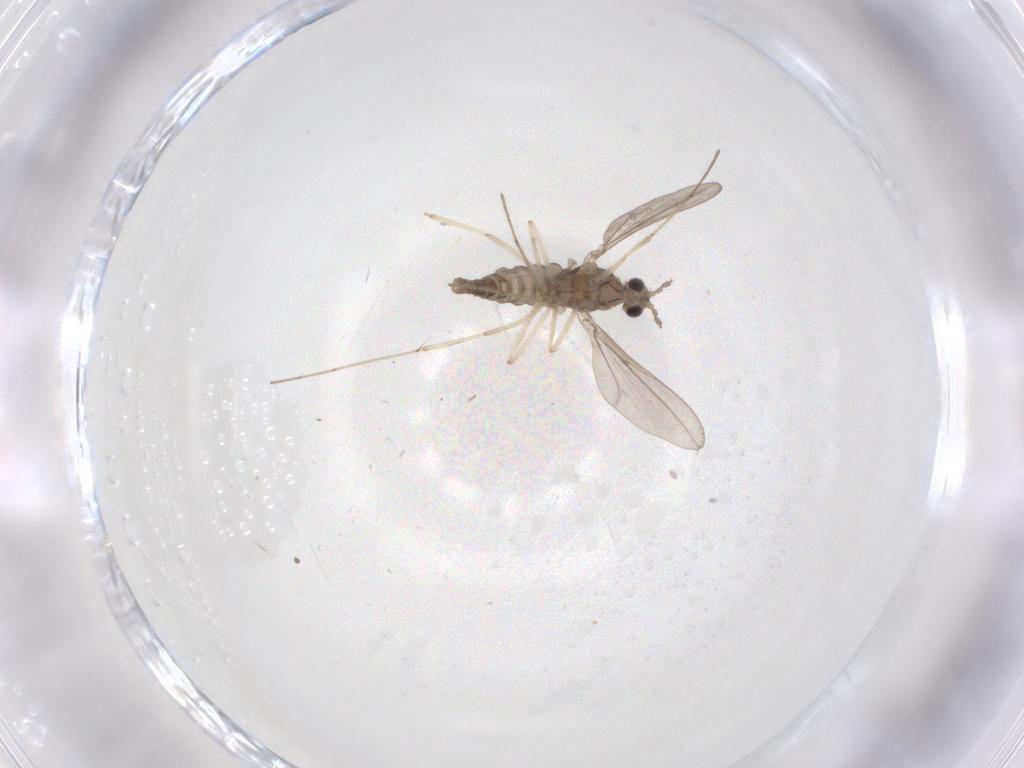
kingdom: Animalia
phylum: Arthropoda
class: Insecta
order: Diptera
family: Cecidomyiidae
